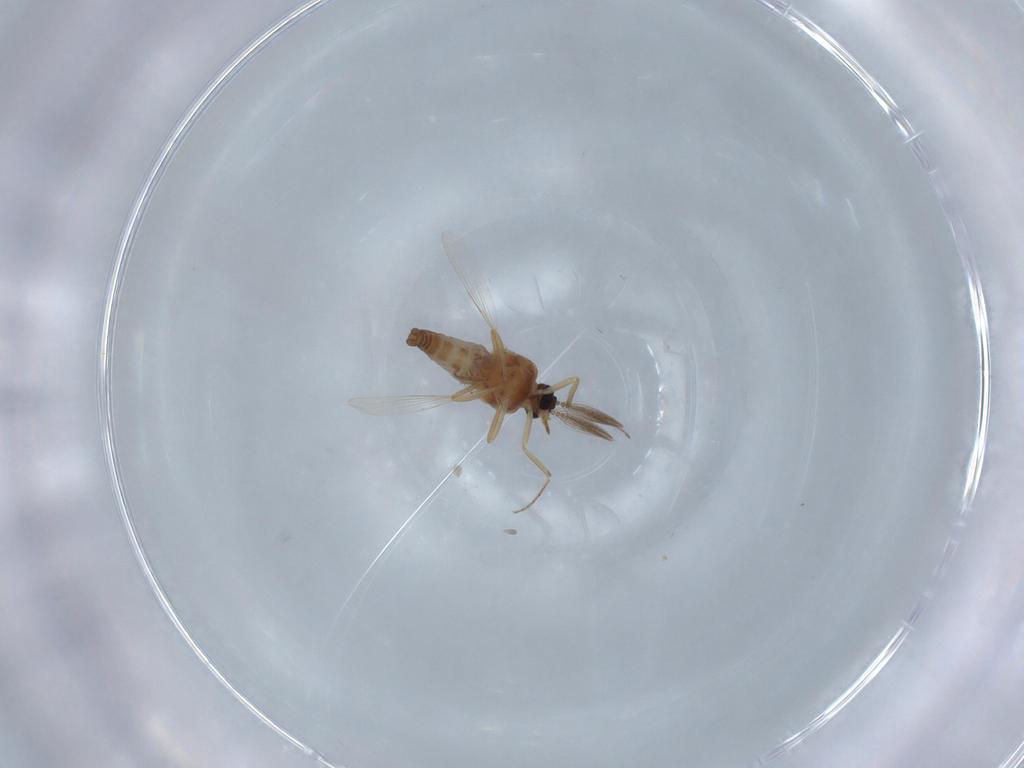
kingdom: Animalia
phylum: Arthropoda
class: Insecta
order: Diptera
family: Ceratopogonidae
